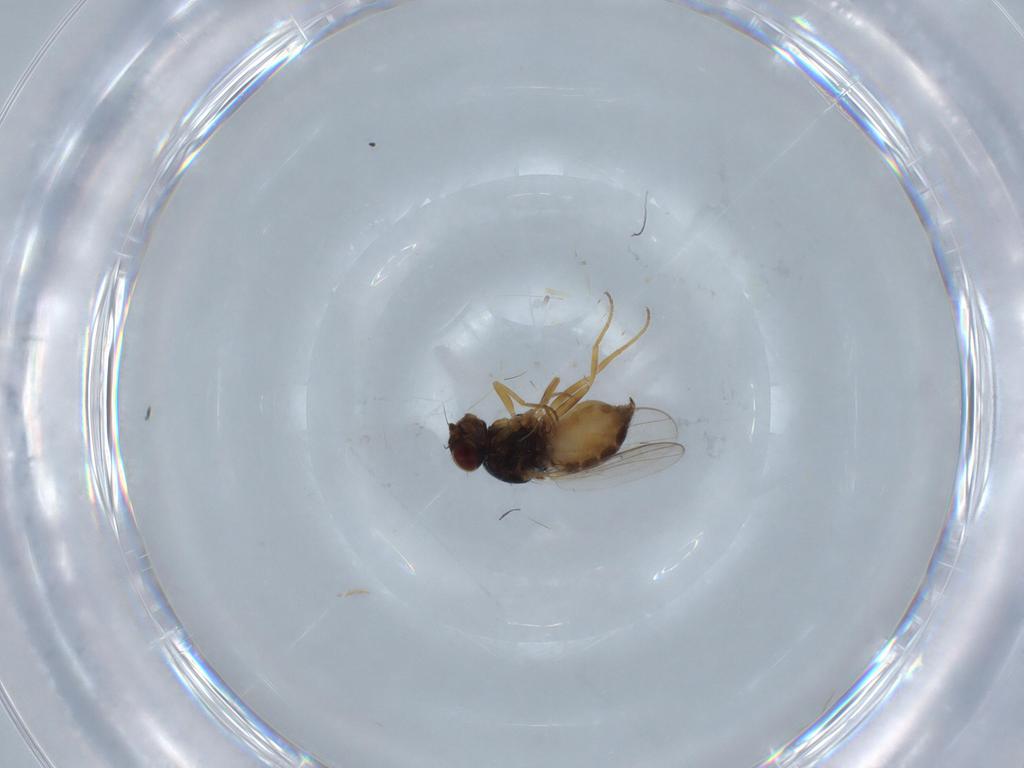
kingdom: Animalia
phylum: Arthropoda
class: Insecta
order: Diptera
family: Chloropidae
